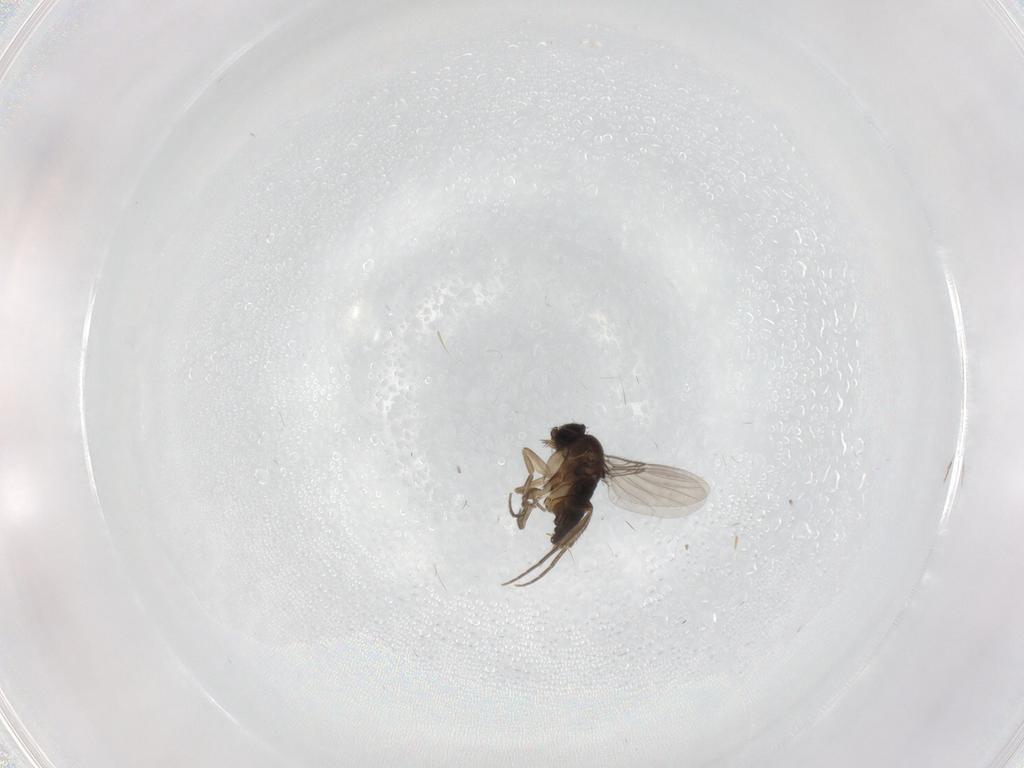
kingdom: Animalia
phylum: Arthropoda
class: Insecta
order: Diptera
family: Phoridae
